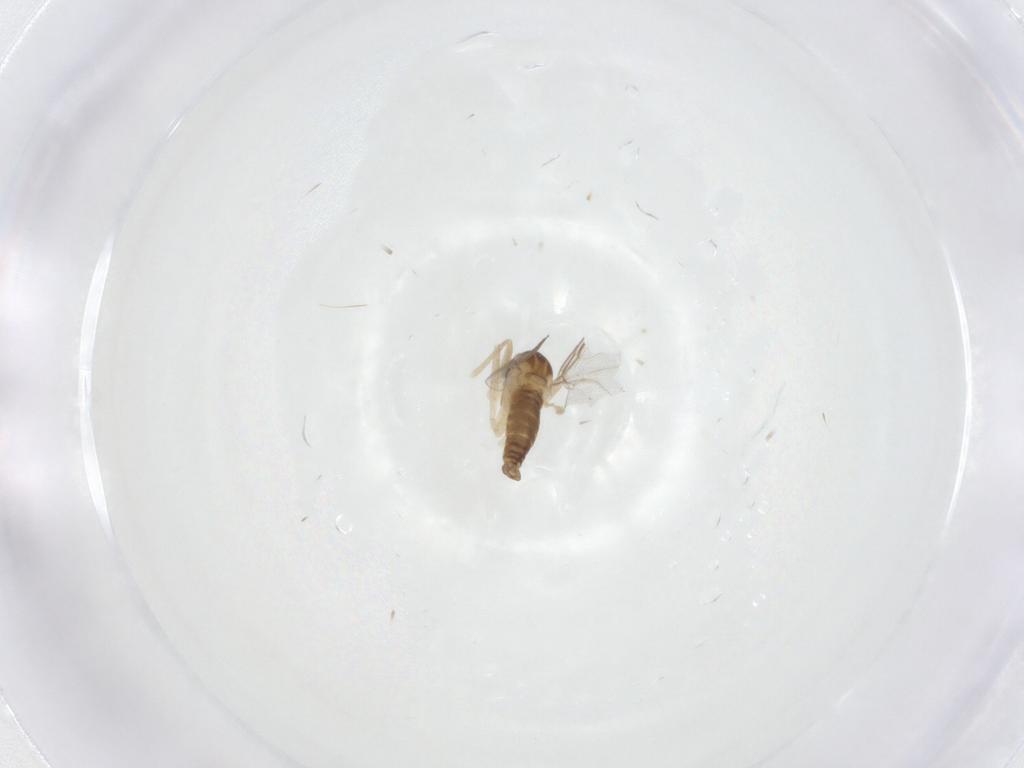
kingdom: Animalia
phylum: Arthropoda
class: Insecta
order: Diptera
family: Cecidomyiidae
